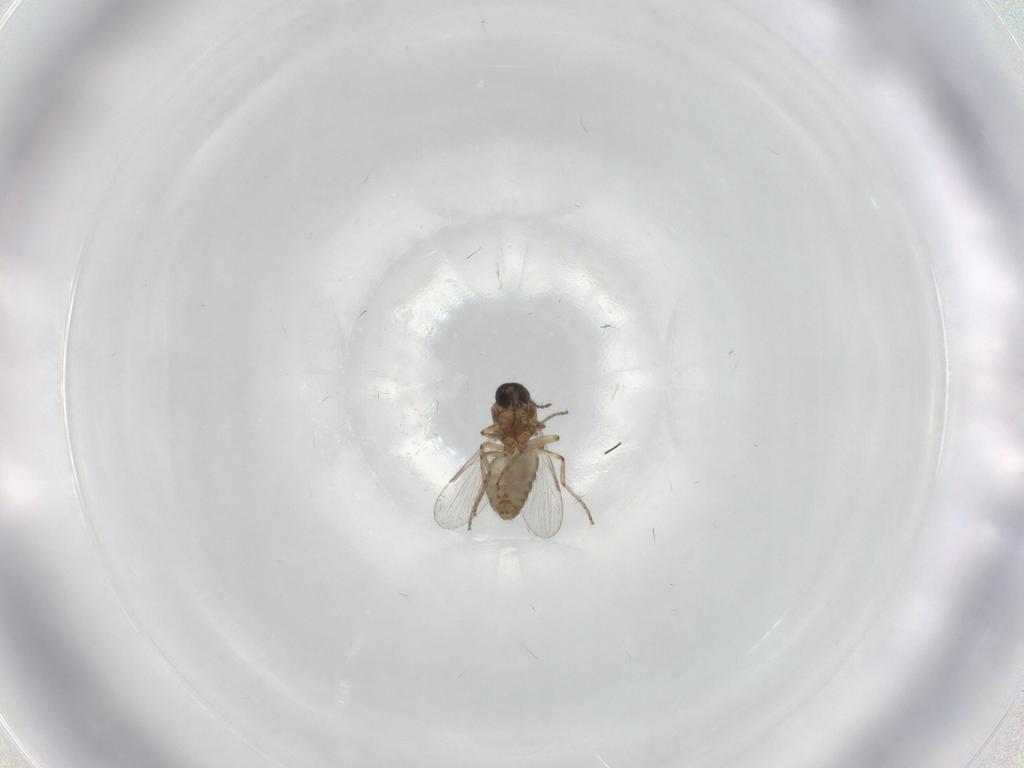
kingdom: Animalia
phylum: Arthropoda
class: Insecta
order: Diptera
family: Ceratopogonidae
